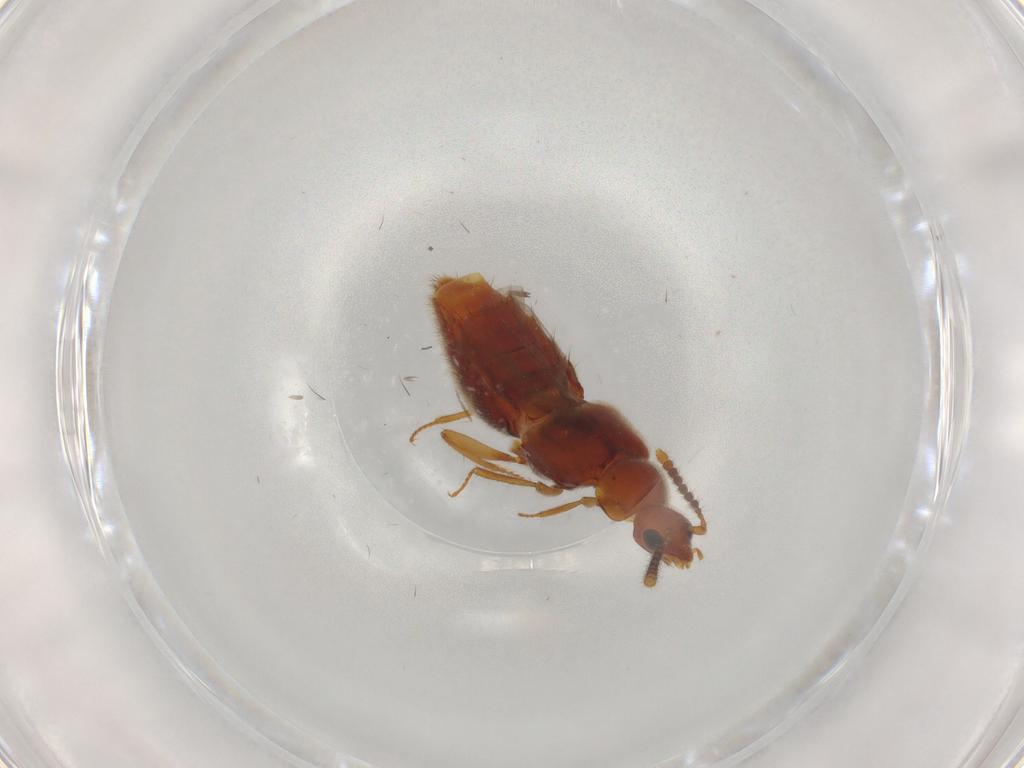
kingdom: Animalia
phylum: Arthropoda
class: Insecta
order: Coleoptera
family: Staphylinidae
